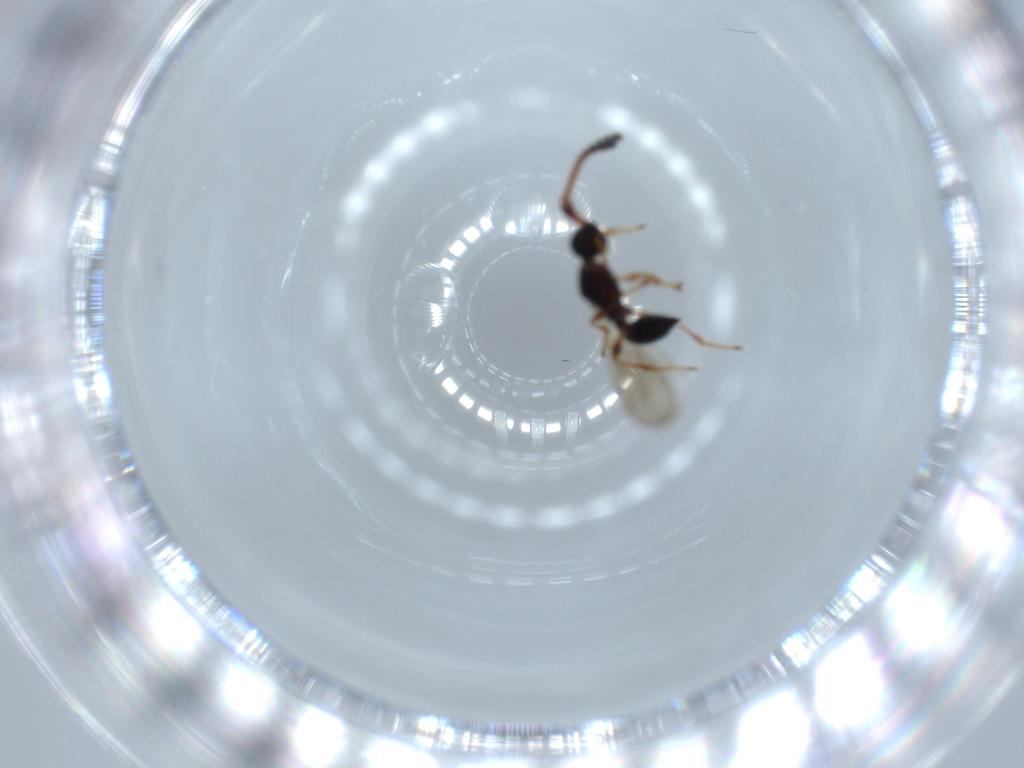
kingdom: Animalia
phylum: Arthropoda
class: Insecta
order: Hymenoptera
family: Diapriidae
